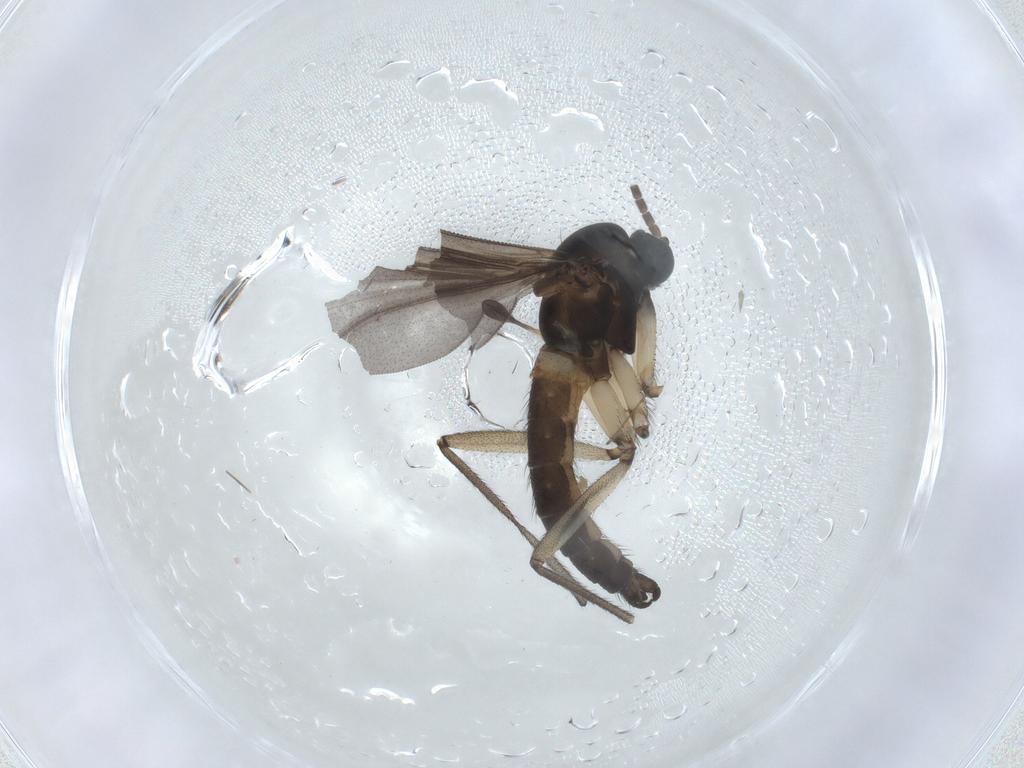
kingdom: Animalia
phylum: Arthropoda
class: Insecta
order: Diptera
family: Sciaridae
